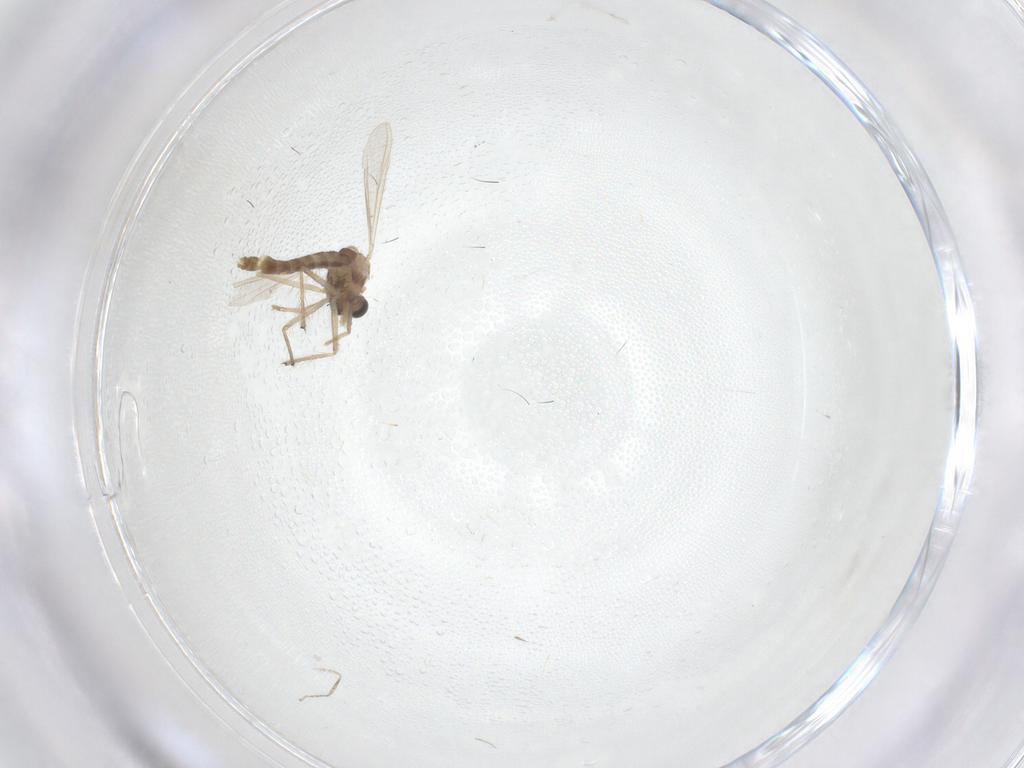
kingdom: Animalia
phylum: Arthropoda
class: Insecta
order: Diptera
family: Chironomidae
